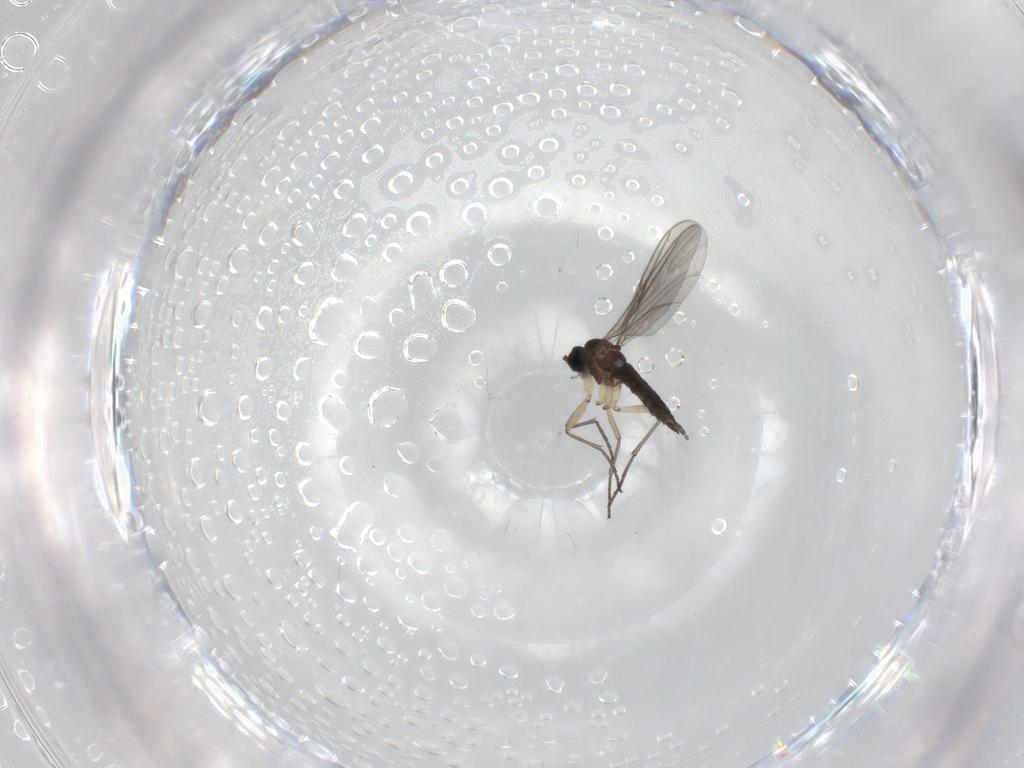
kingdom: Animalia
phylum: Arthropoda
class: Insecta
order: Diptera
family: Sciaridae
